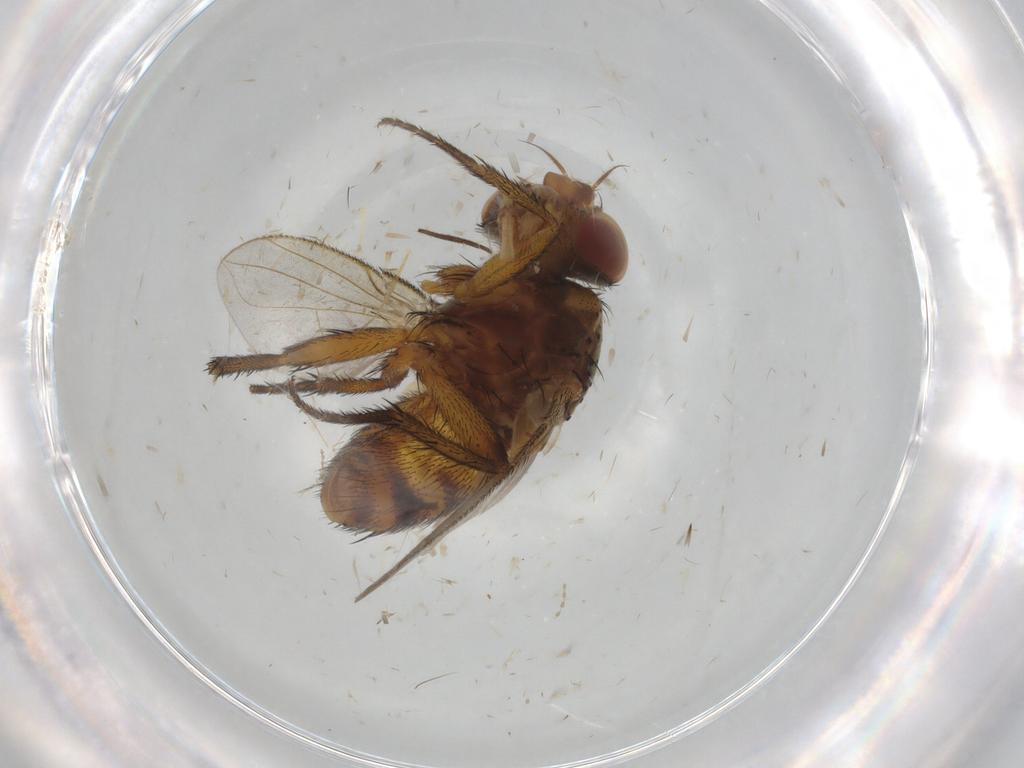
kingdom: Animalia
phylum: Arthropoda
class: Insecta
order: Diptera
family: Sciaridae
